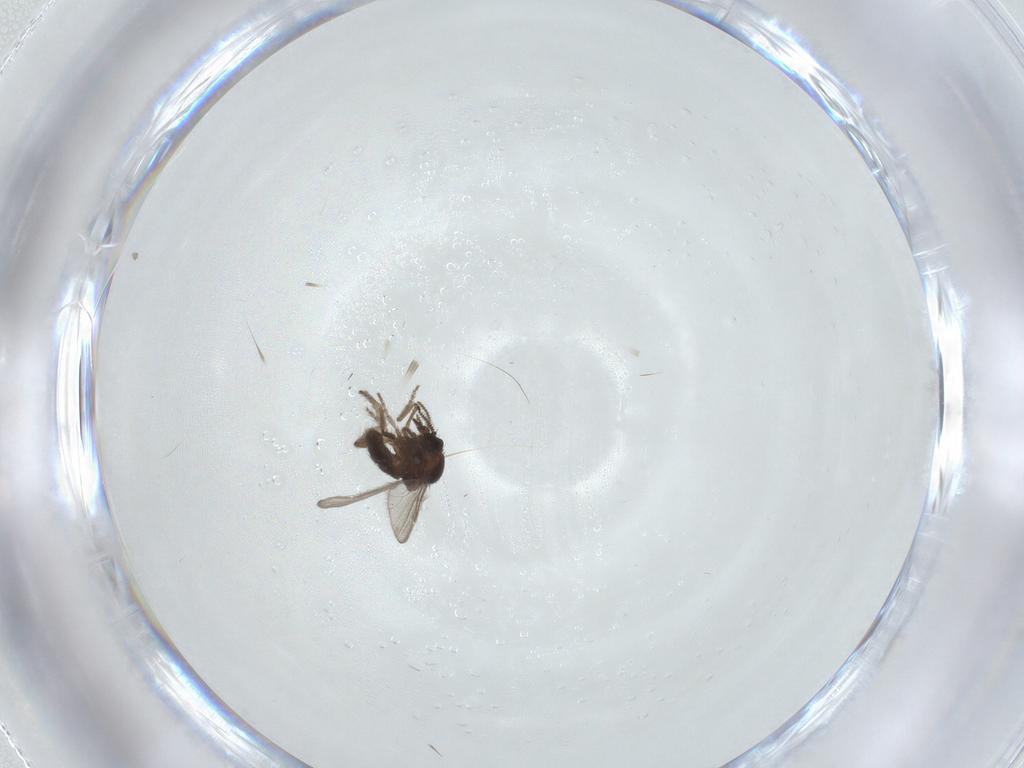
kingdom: Animalia
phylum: Arthropoda
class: Insecta
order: Diptera
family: Ceratopogonidae
